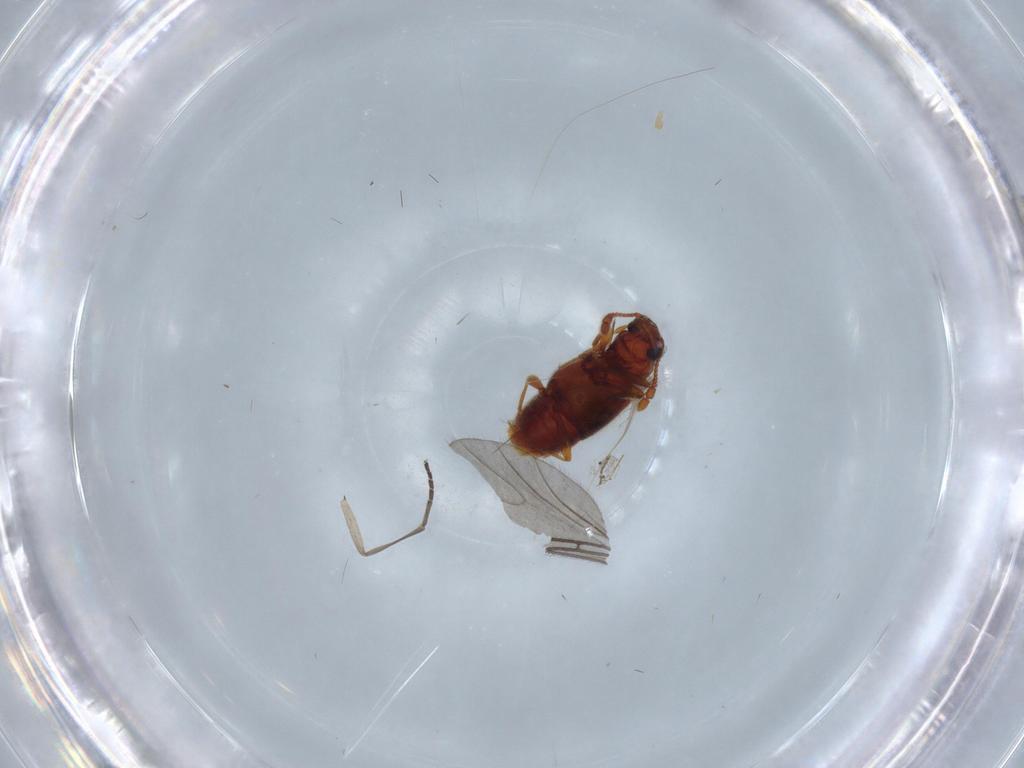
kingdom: Animalia
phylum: Arthropoda
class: Insecta
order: Coleoptera
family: Staphylinidae
